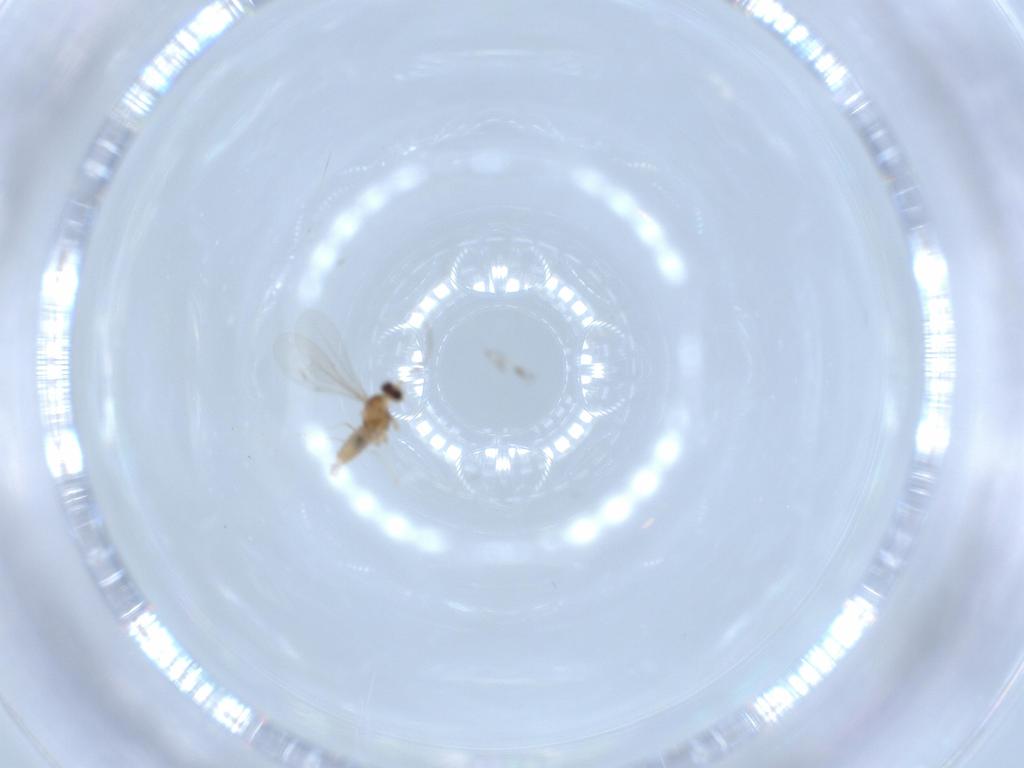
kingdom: Animalia
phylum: Arthropoda
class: Insecta
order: Diptera
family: Cecidomyiidae
